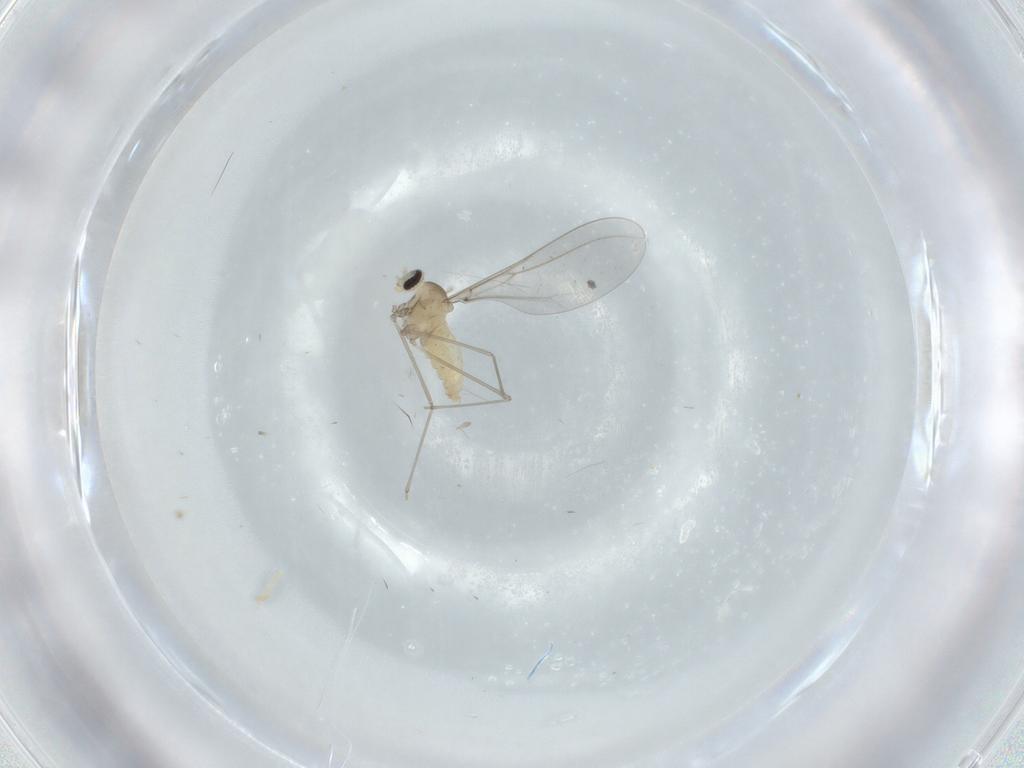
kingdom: Animalia
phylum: Arthropoda
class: Insecta
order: Diptera
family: Cecidomyiidae
